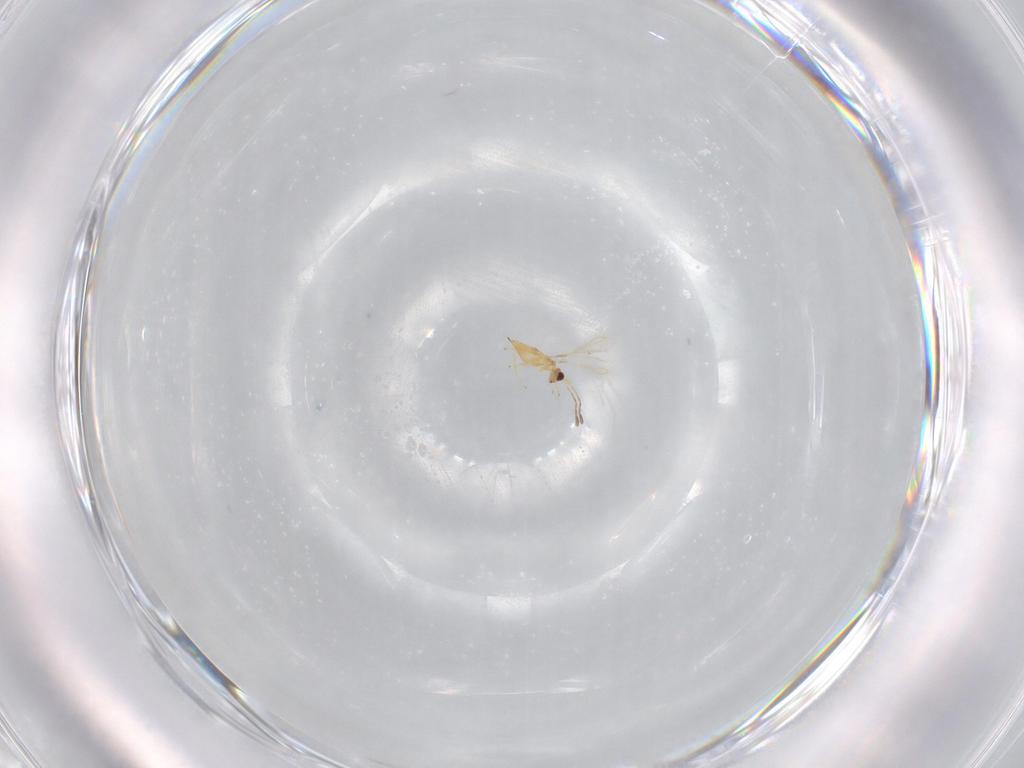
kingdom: Animalia
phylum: Arthropoda
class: Insecta
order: Hymenoptera
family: Mymaridae
